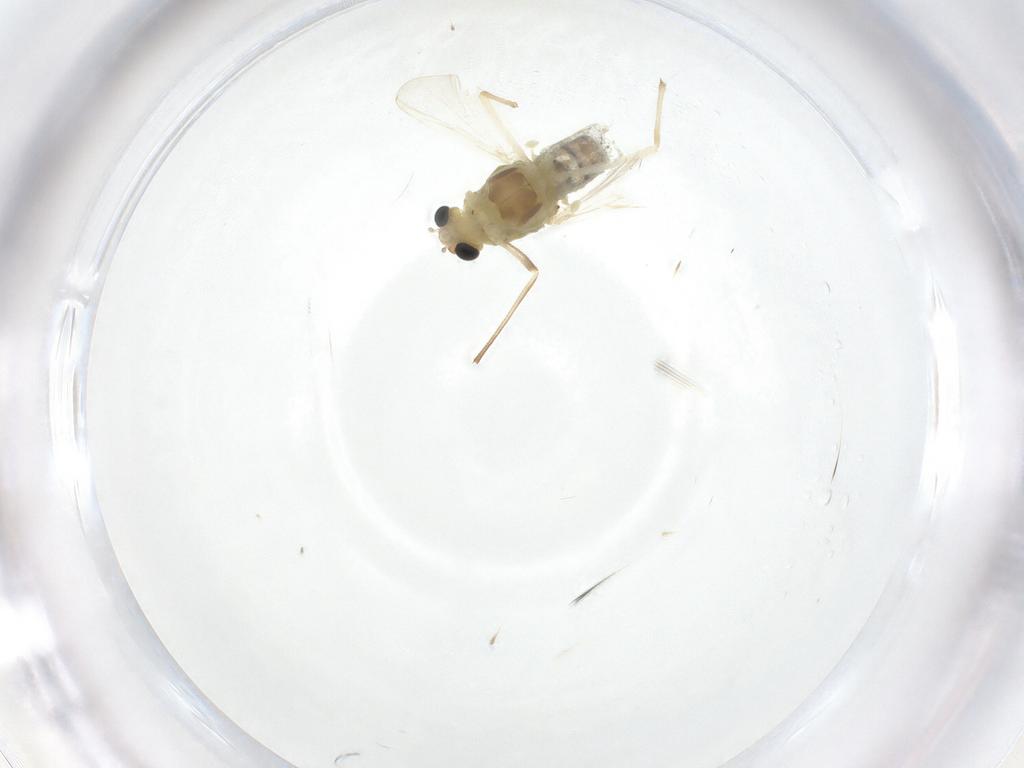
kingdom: Animalia
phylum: Arthropoda
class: Insecta
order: Diptera
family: Chironomidae
